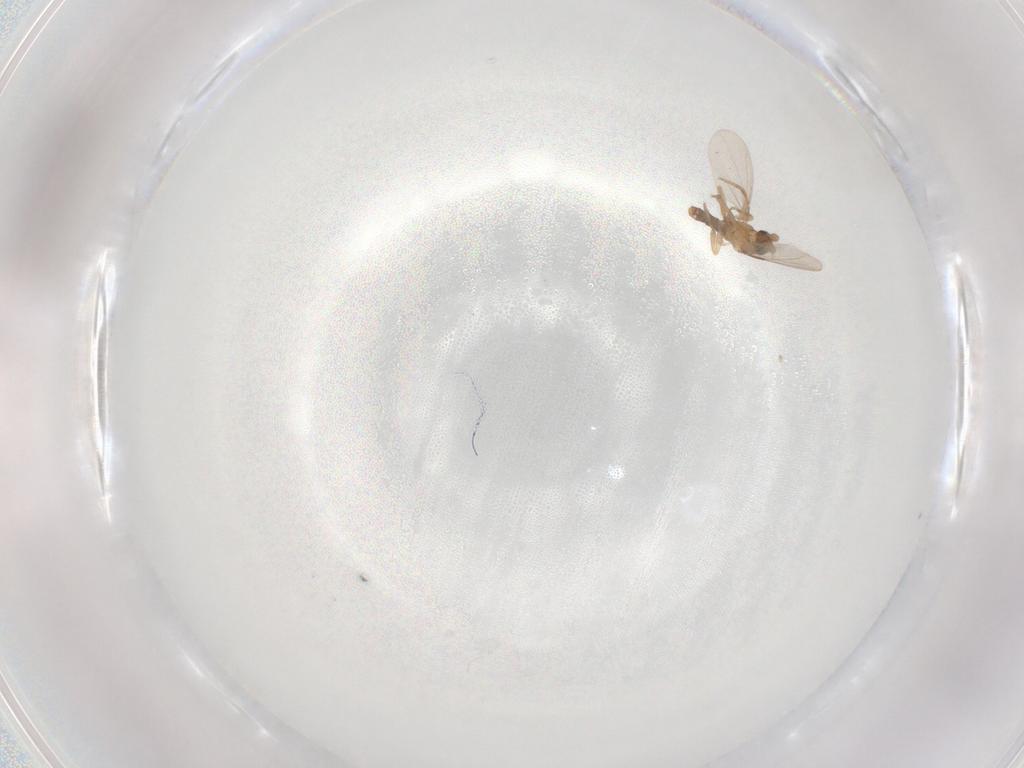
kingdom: Animalia
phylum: Arthropoda
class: Insecta
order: Diptera
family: Phoridae
